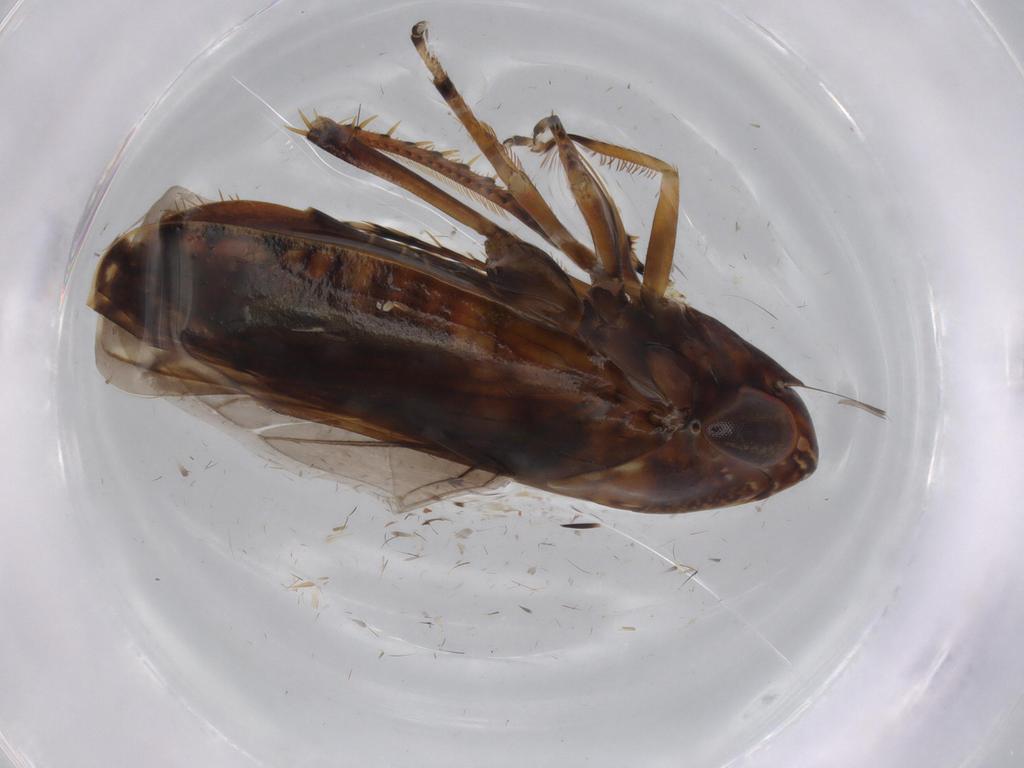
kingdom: Animalia
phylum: Arthropoda
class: Insecta
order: Hemiptera
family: Cicadellidae
